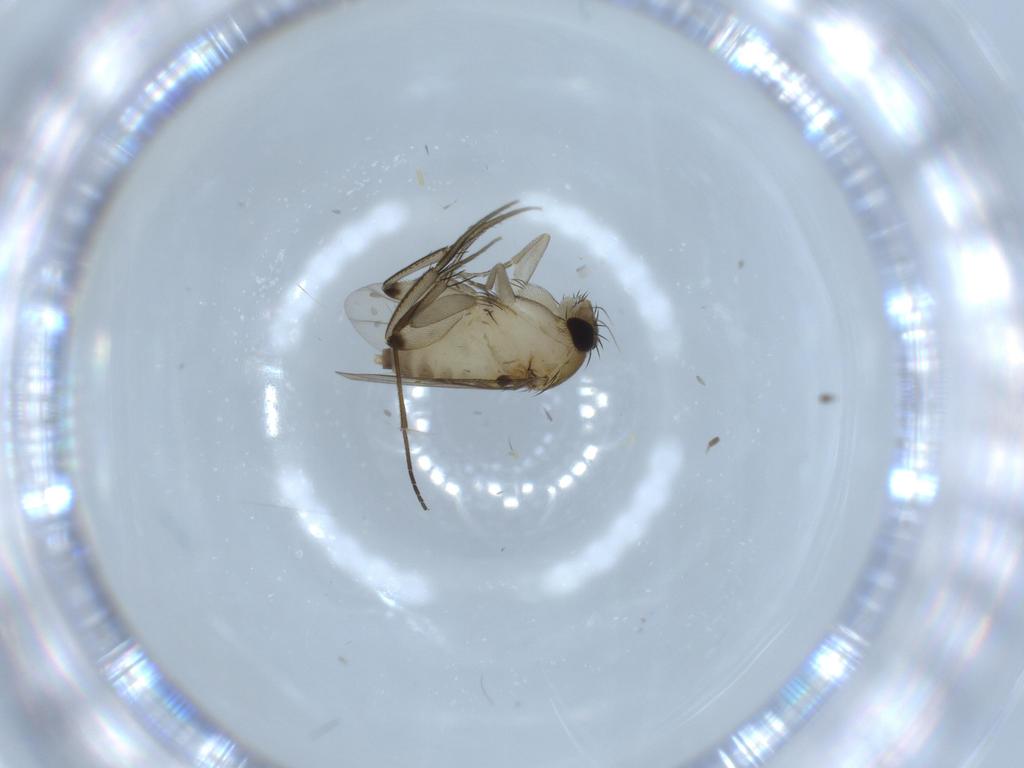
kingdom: Animalia
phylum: Arthropoda
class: Insecta
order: Diptera
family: Phoridae
